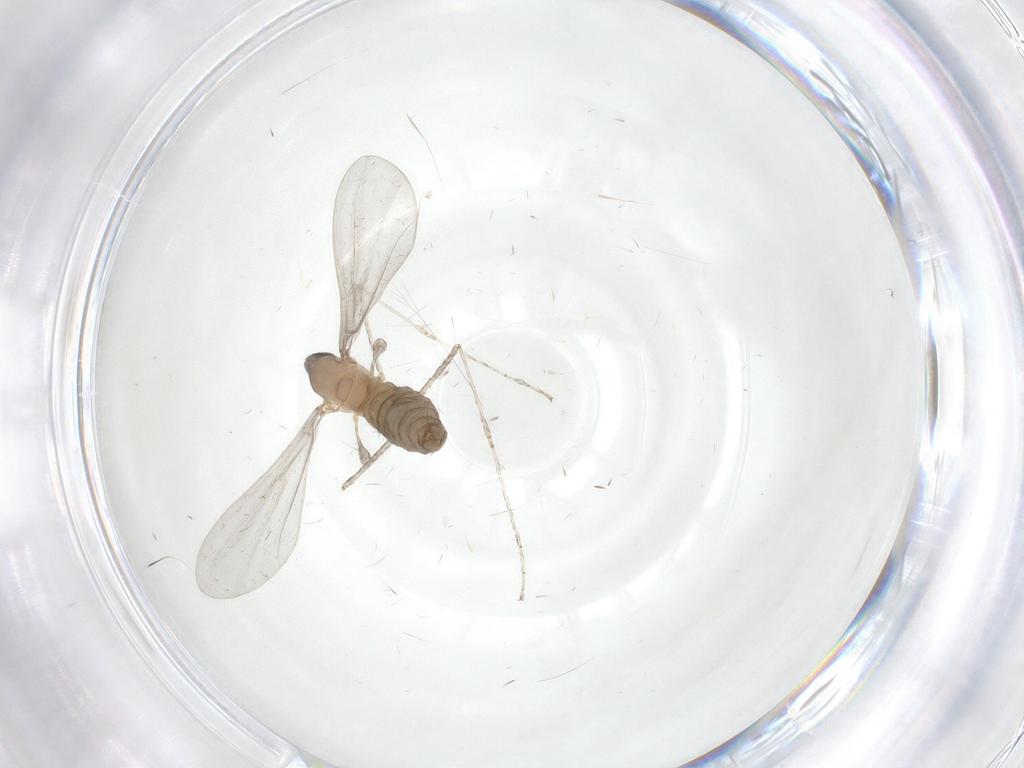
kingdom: Animalia
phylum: Arthropoda
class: Insecta
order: Diptera
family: Cecidomyiidae
